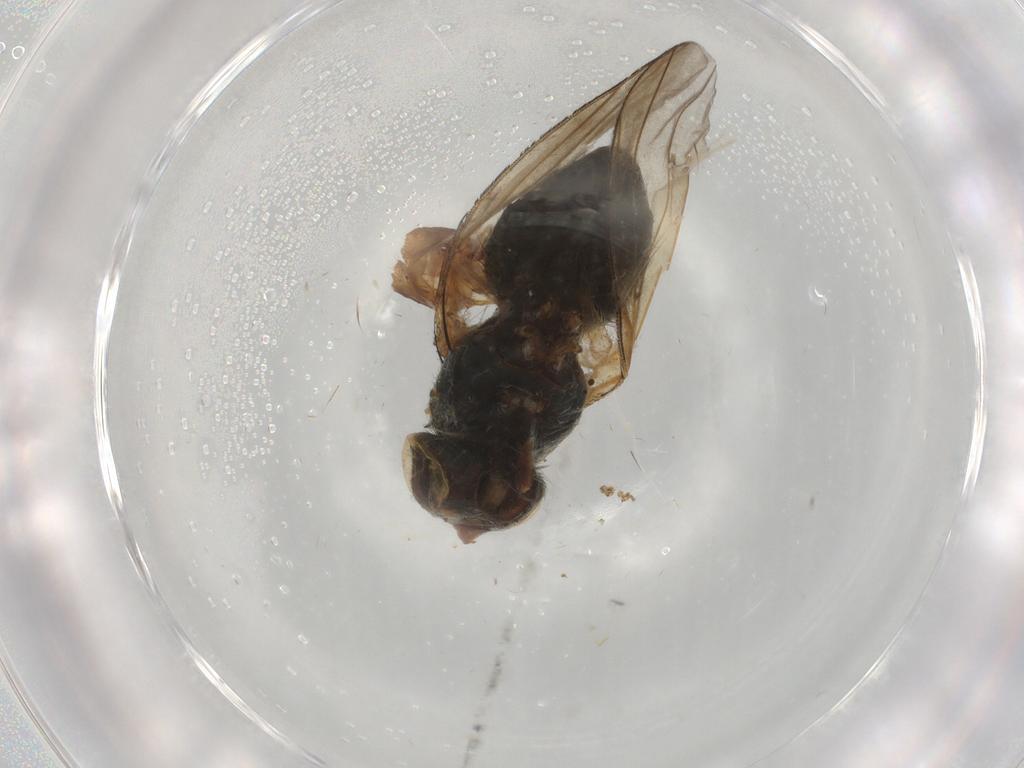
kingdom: Animalia
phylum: Arthropoda
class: Insecta
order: Diptera
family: Ephydridae
